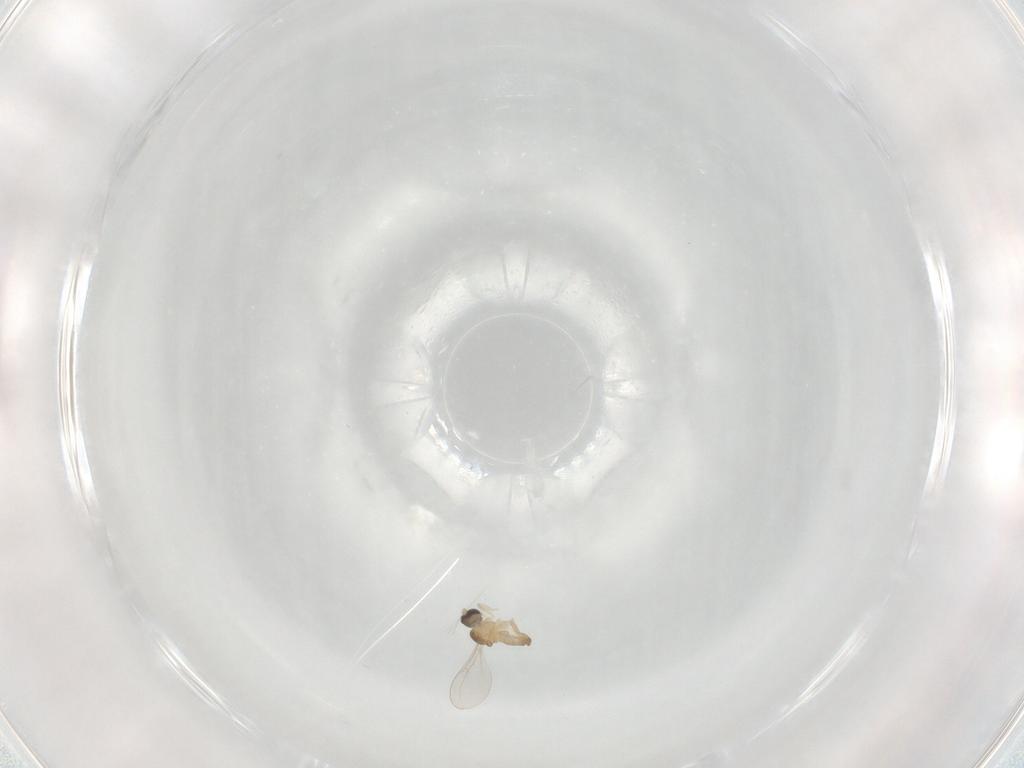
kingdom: Animalia
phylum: Arthropoda
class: Insecta
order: Diptera
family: Cecidomyiidae
